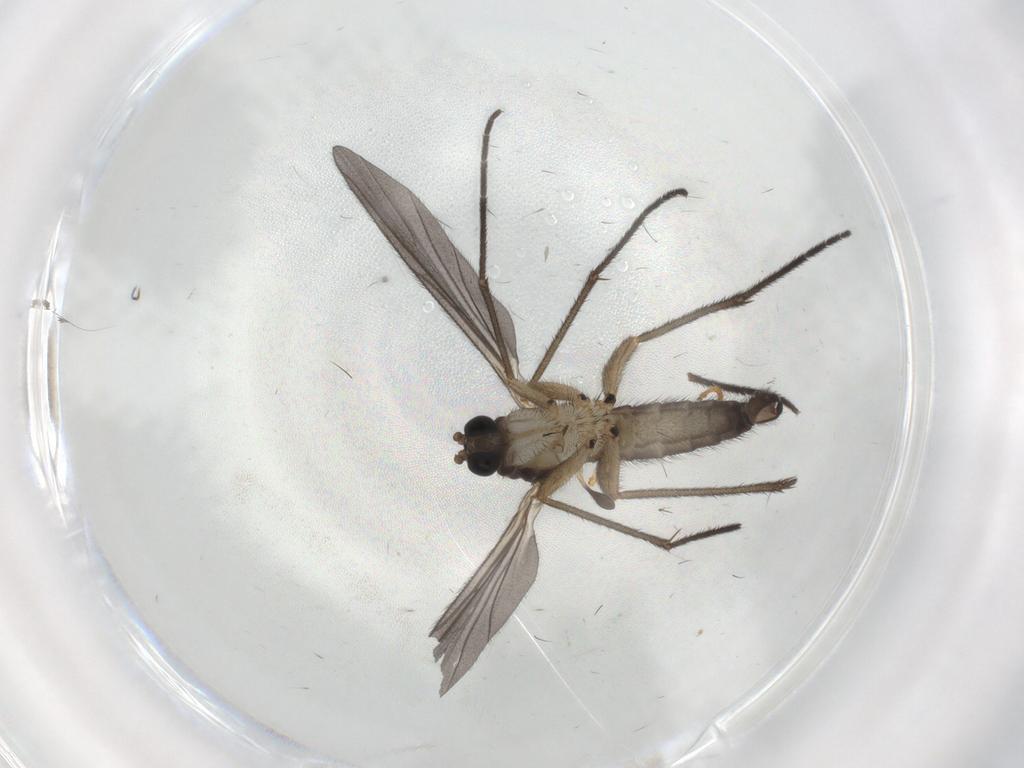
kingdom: Animalia
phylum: Arthropoda
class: Insecta
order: Diptera
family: Sciaridae
